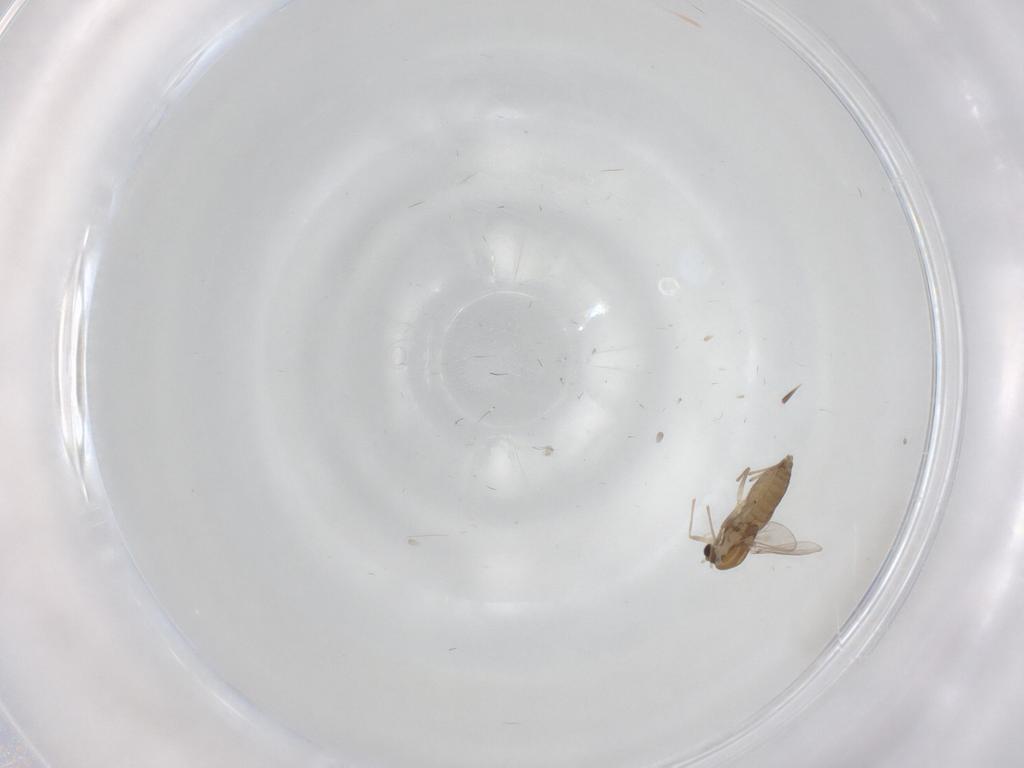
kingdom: Animalia
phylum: Arthropoda
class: Insecta
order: Diptera
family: Chironomidae
